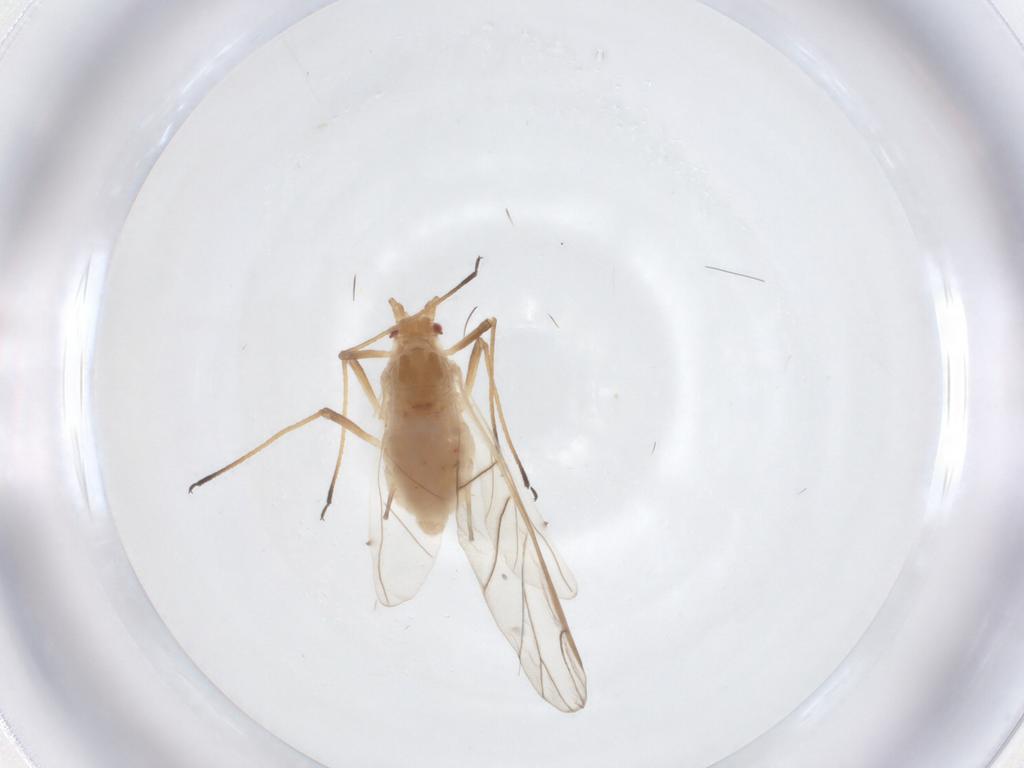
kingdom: Animalia
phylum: Arthropoda
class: Insecta
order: Hemiptera
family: Aphididae
